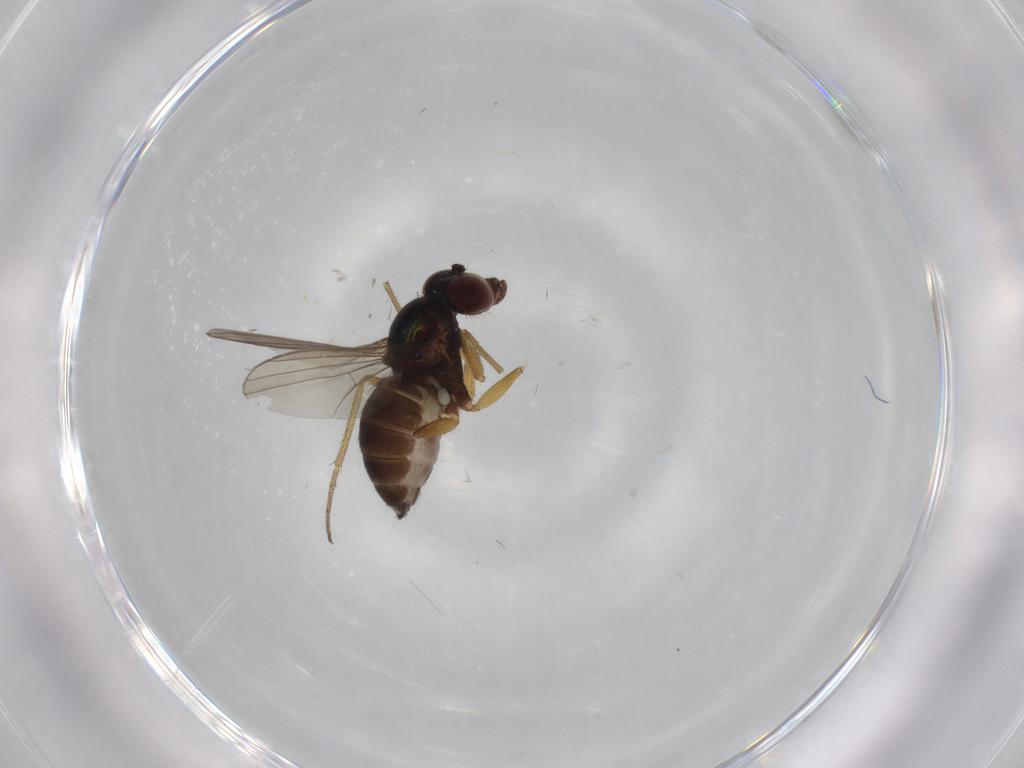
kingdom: Animalia
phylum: Arthropoda
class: Insecta
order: Diptera
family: Dolichopodidae
